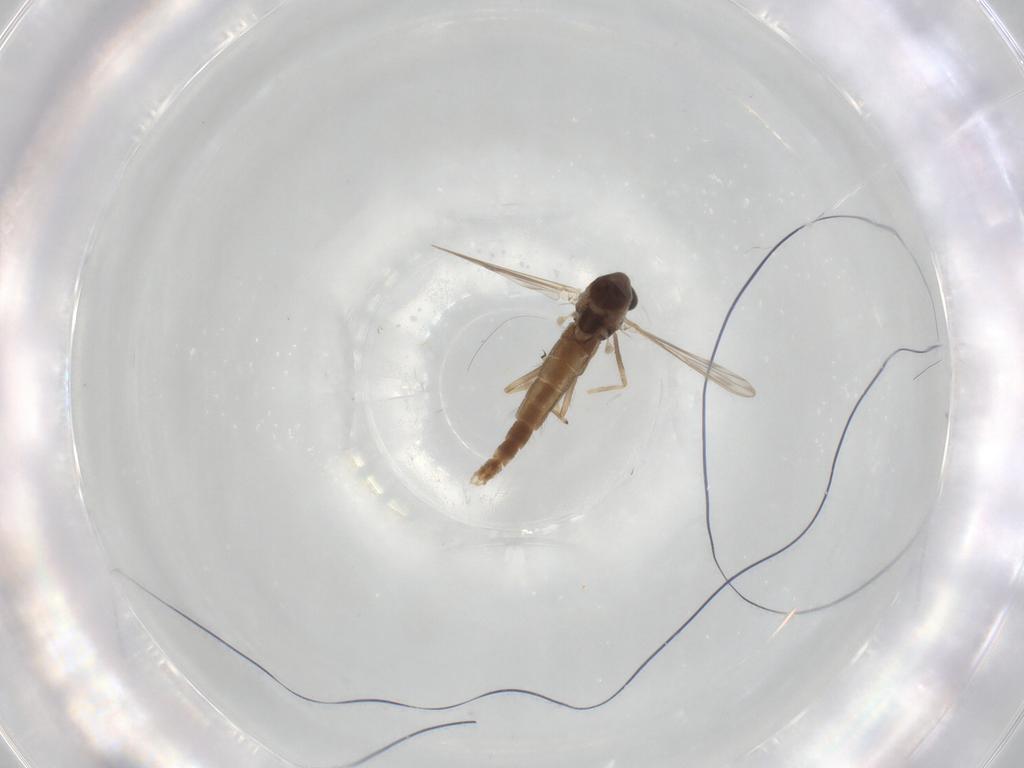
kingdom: Animalia
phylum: Arthropoda
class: Insecta
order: Diptera
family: Chironomidae
